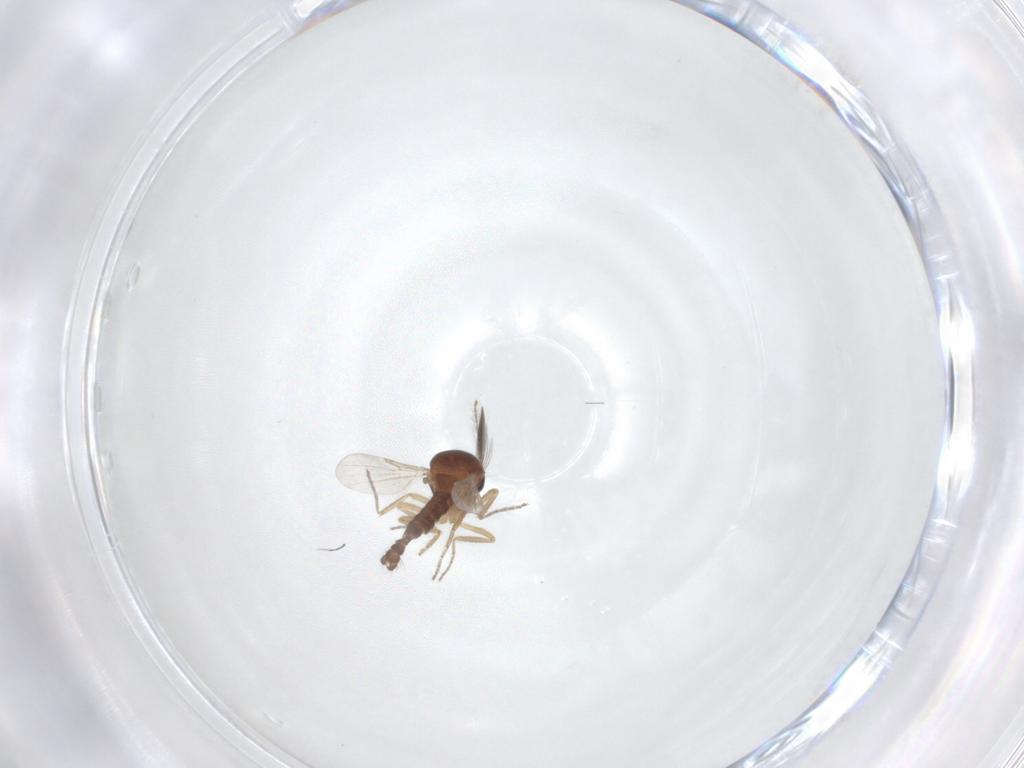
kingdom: Animalia
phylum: Arthropoda
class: Insecta
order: Diptera
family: Ceratopogonidae
